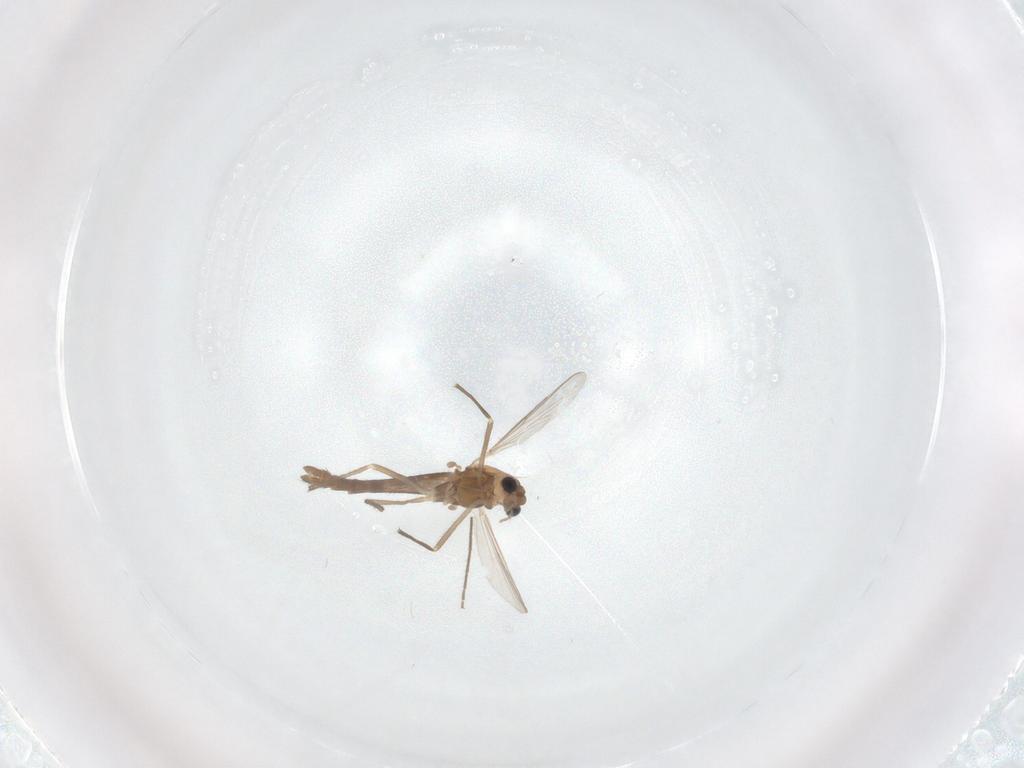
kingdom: Animalia
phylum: Arthropoda
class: Insecta
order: Diptera
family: Chironomidae
